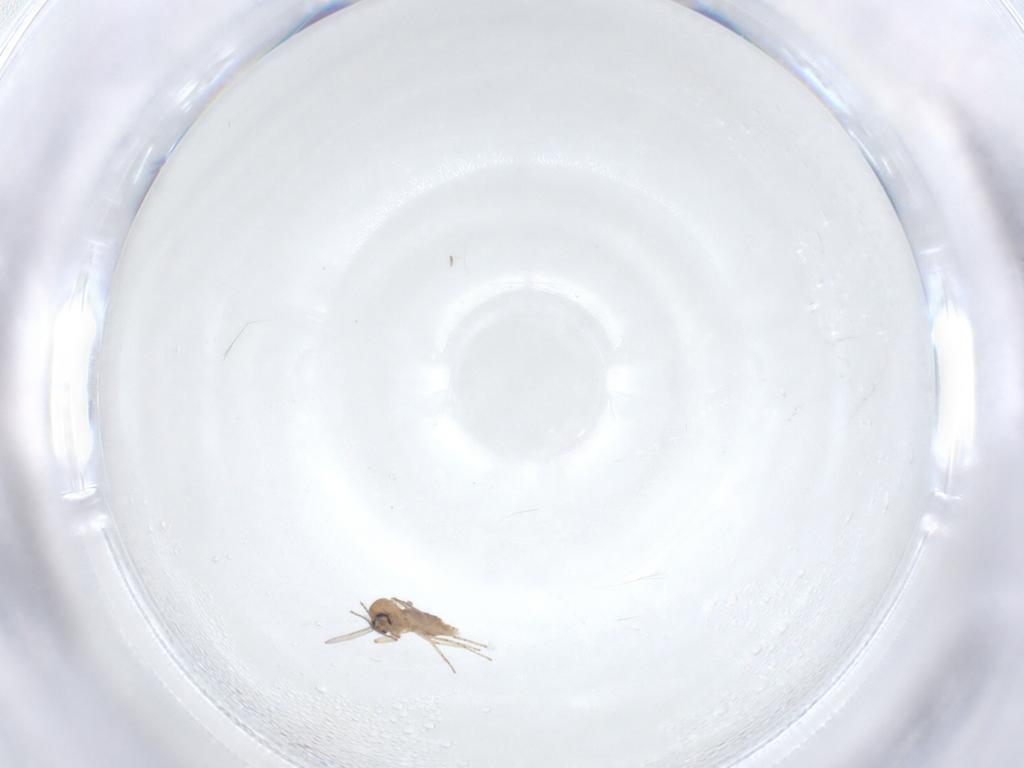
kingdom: Animalia
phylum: Arthropoda
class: Insecta
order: Diptera
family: Ceratopogonidae
